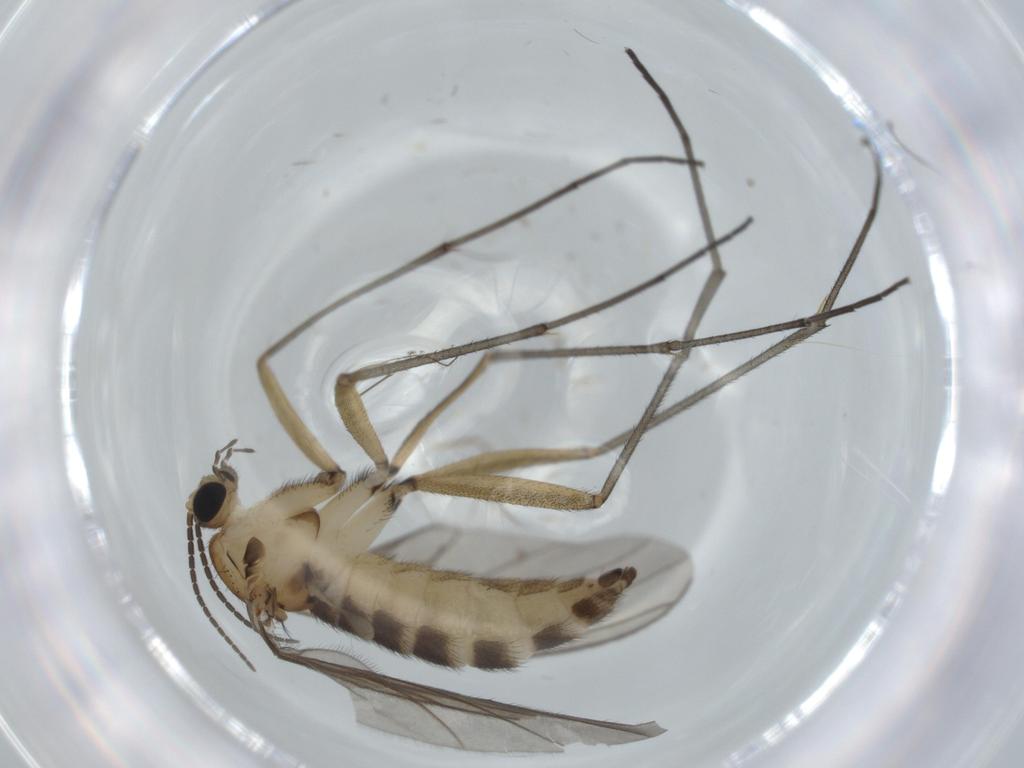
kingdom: Animalia
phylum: Arthropoda
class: Insecta
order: Diptera
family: Sciaridae
